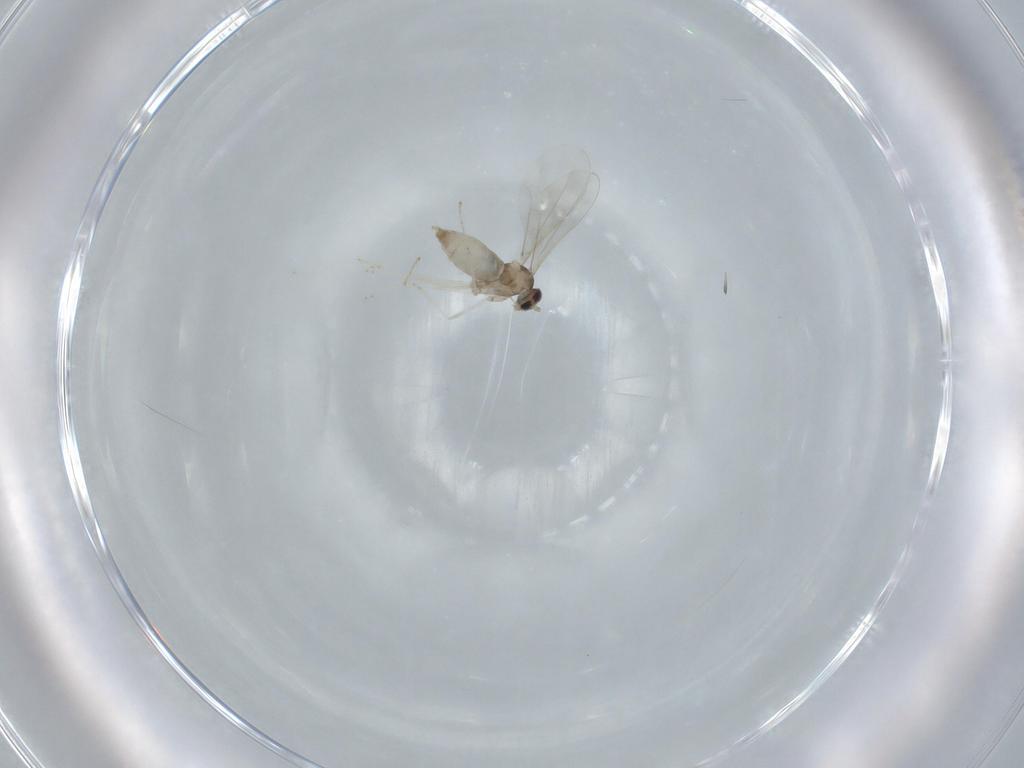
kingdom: Animalia
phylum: Arthropoda
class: Insecta
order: Diptera
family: Cecidomyiidae
